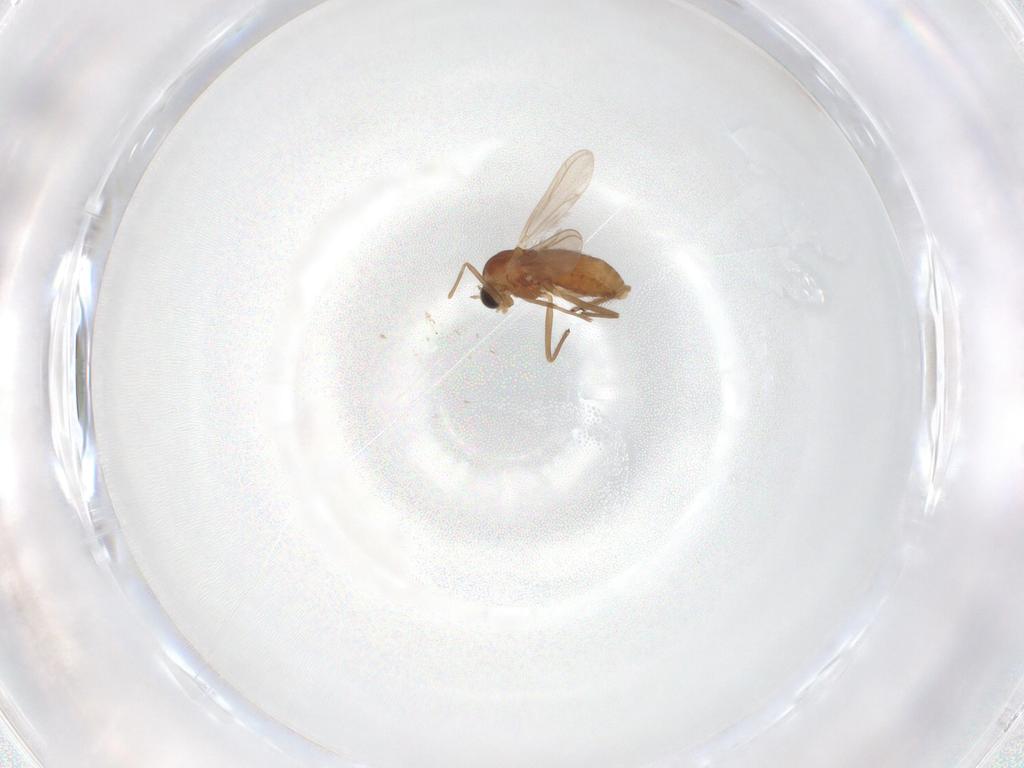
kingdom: Animalia
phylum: Arthropoda
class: Insecta
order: Diptera
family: Chironomidae
